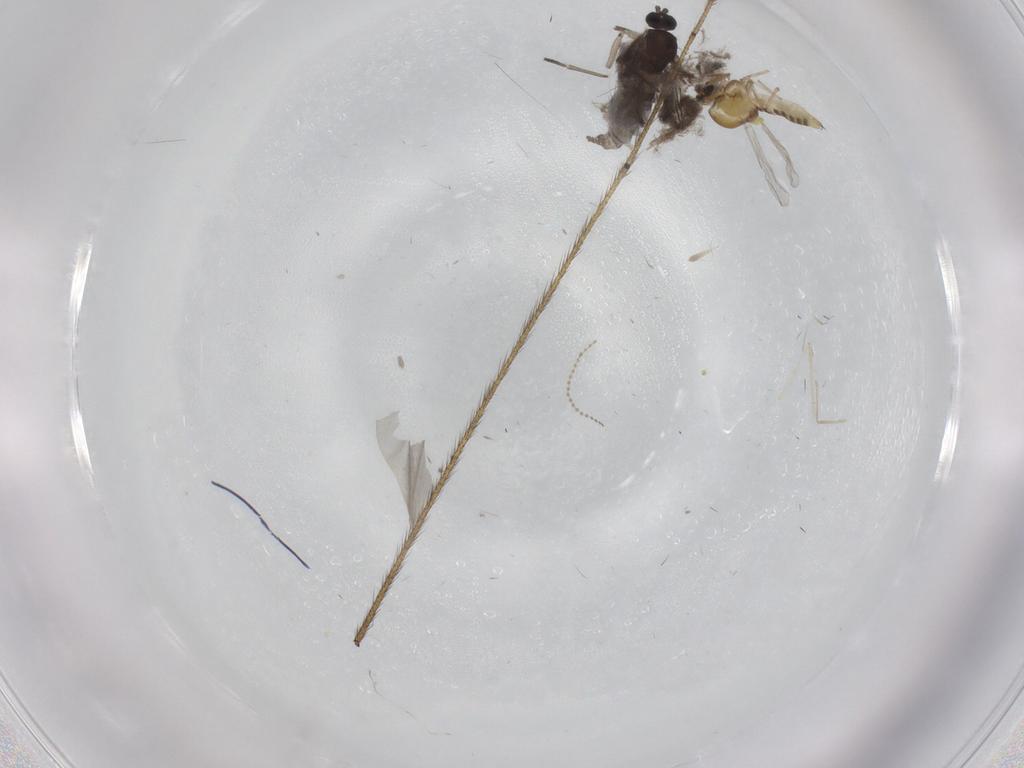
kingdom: Animalia
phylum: Arthropoda
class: Insecta
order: Diptera
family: Sciaridae
